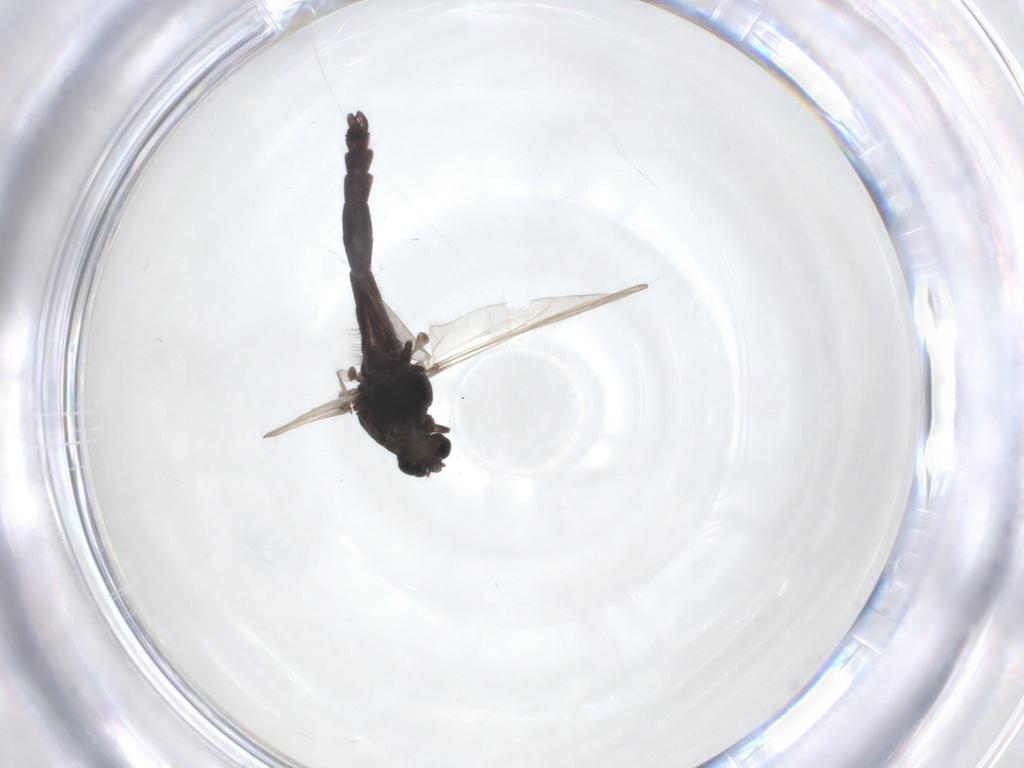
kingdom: Animalia
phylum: Arthropoda
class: Insecta
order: Diptera
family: Chironomidae
